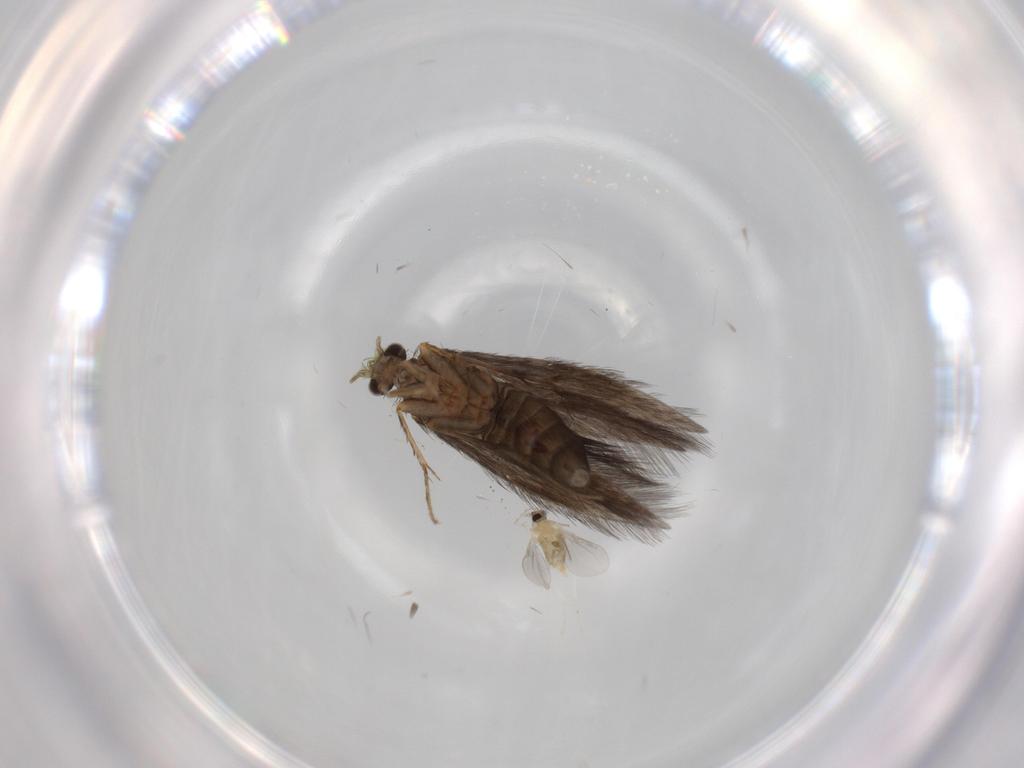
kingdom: Animalia
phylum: Arthropoda
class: Insecta
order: Diptera
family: Cecidomyiidae
